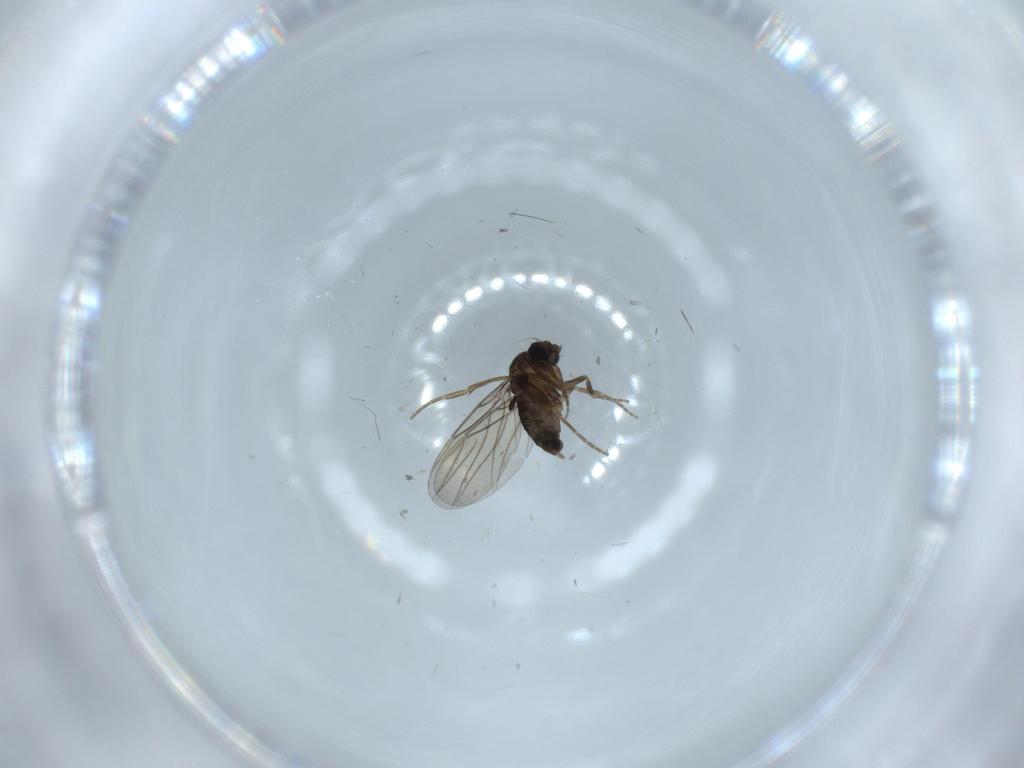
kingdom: Animalia
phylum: Arthropoda
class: Insecta
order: Diptera
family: Phoridae
